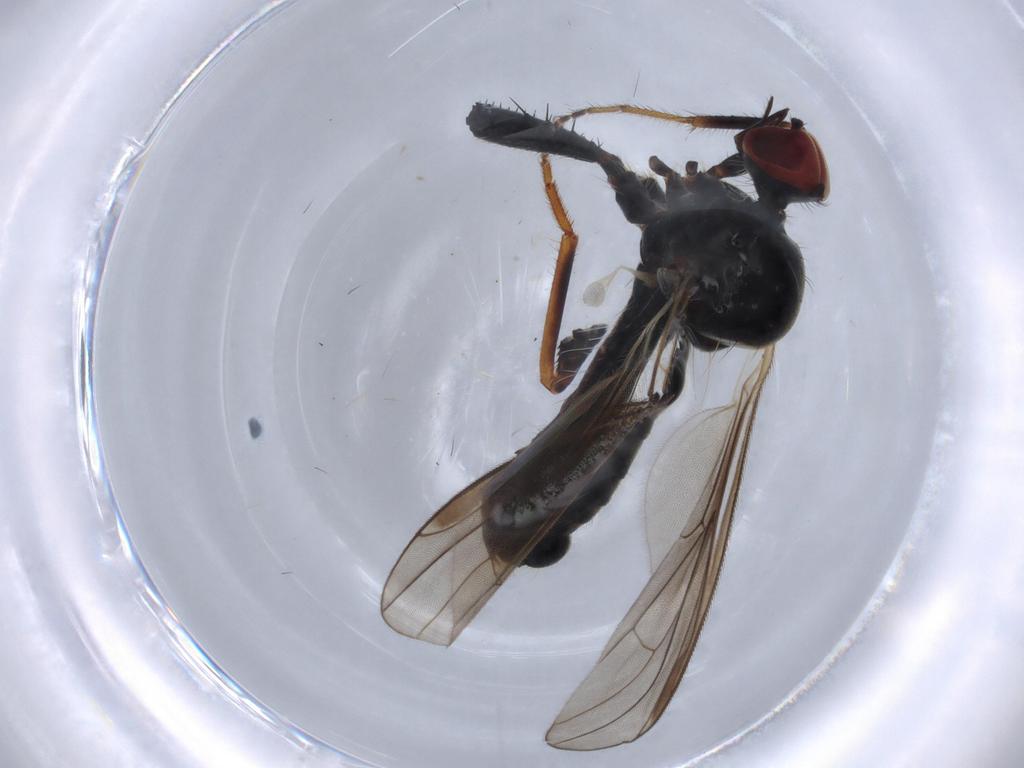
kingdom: Animalia
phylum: Arthropoda
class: Insecta
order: Diptera
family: Hybotidae
